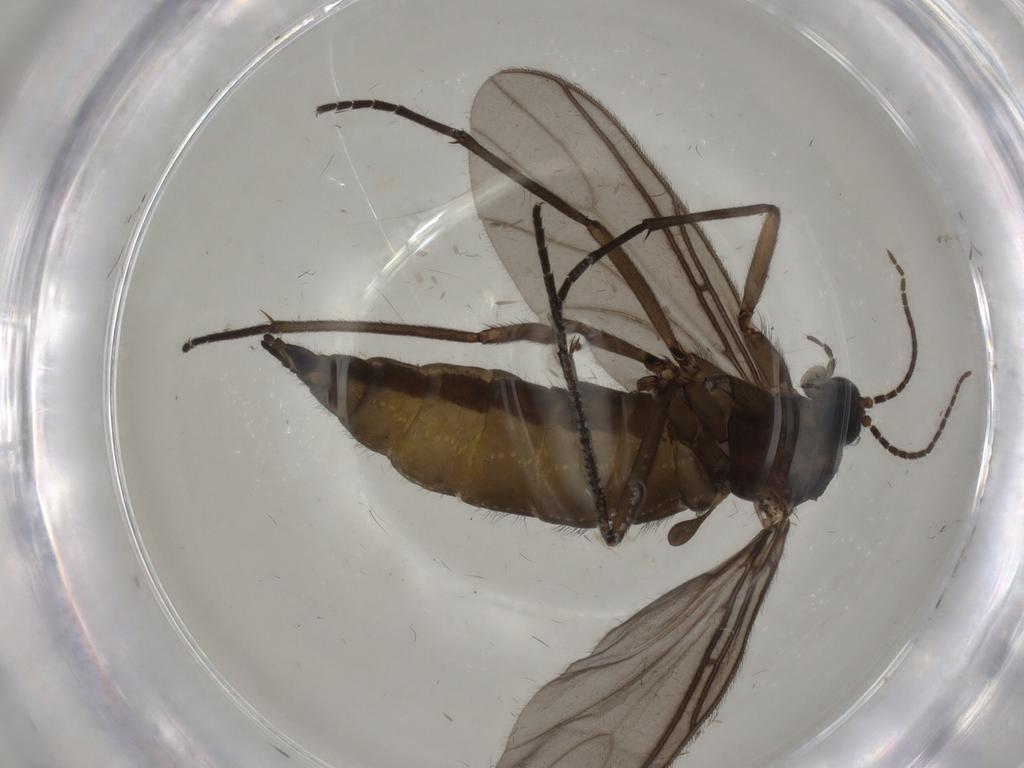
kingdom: Animalia
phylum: Arthropoda
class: Insecta
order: Diptera
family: Sciaridae
